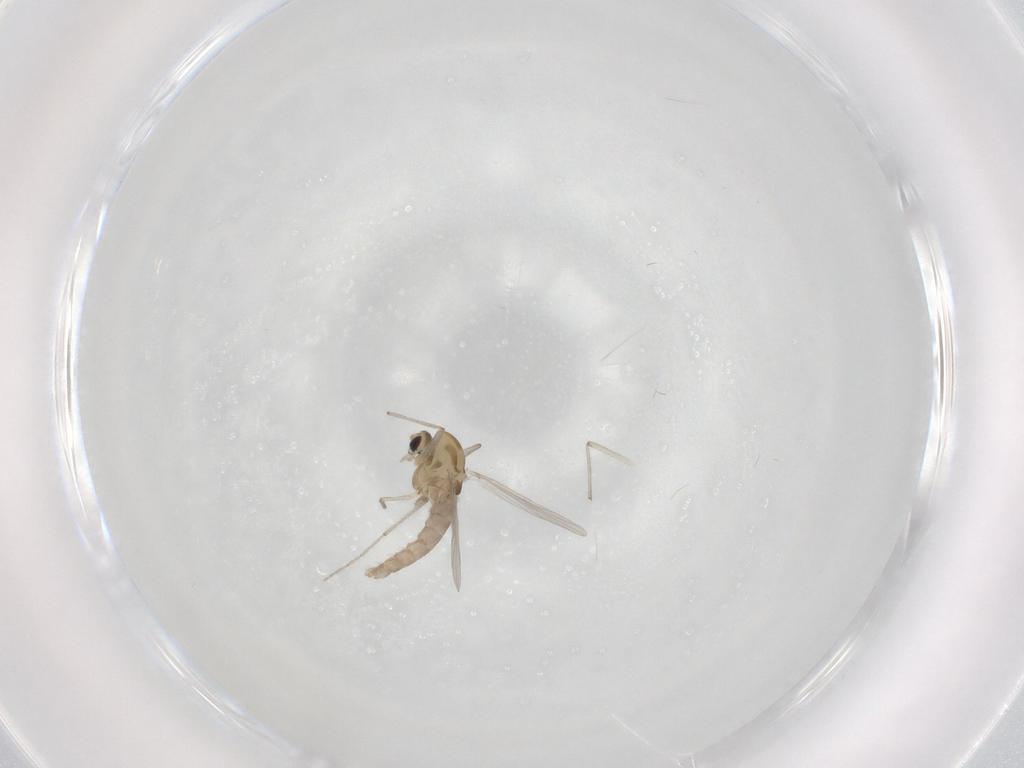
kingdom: Animalia
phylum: Arthropoda
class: Insecta
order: Diptera
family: Chironomidae
